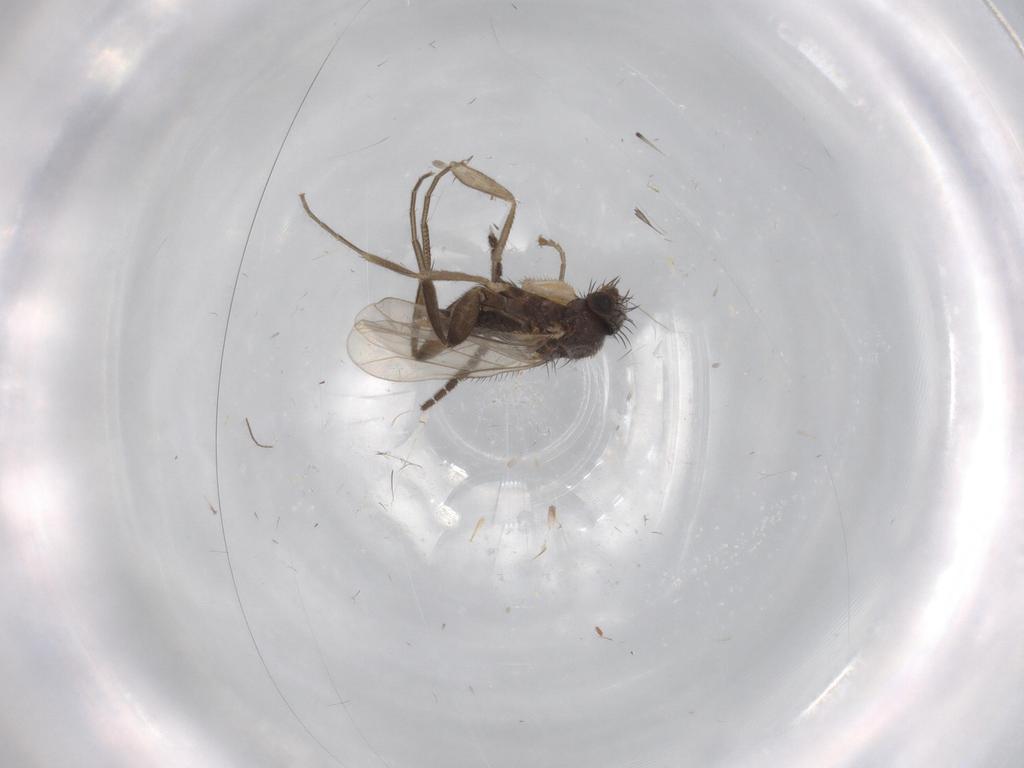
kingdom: Animalia
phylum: Arthropoda
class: Insecta
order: Diptera
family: Sciaridae
